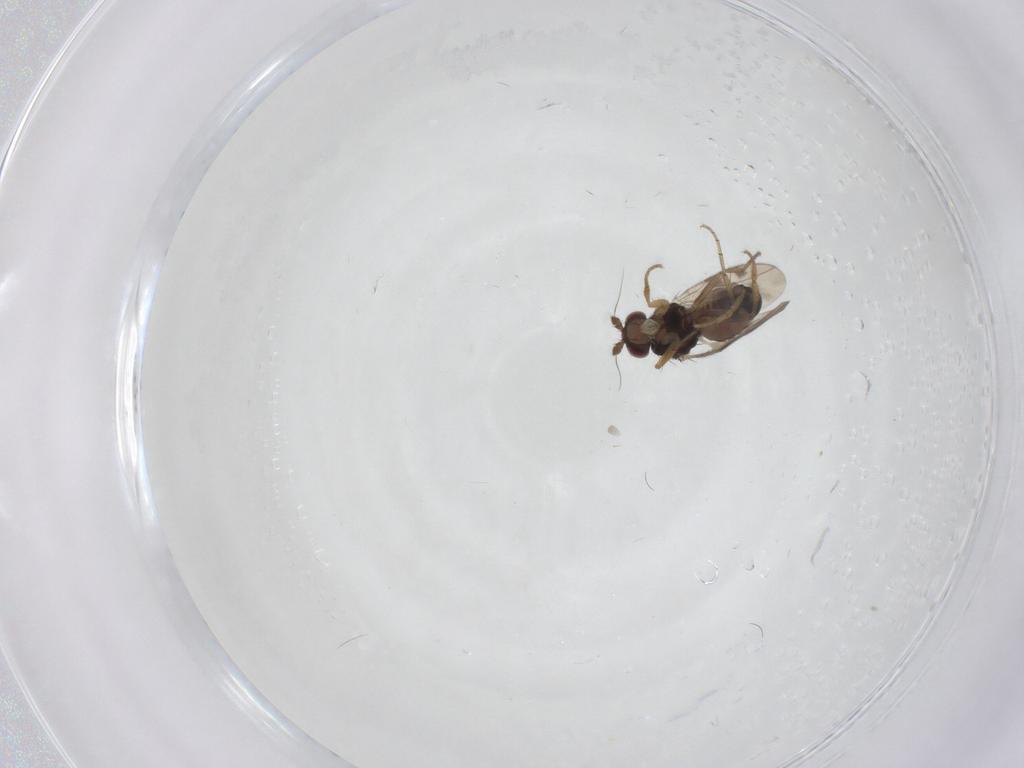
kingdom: Animalia
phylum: Arthropoda
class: Insecta
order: Diptera
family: Sphaeroceridae
